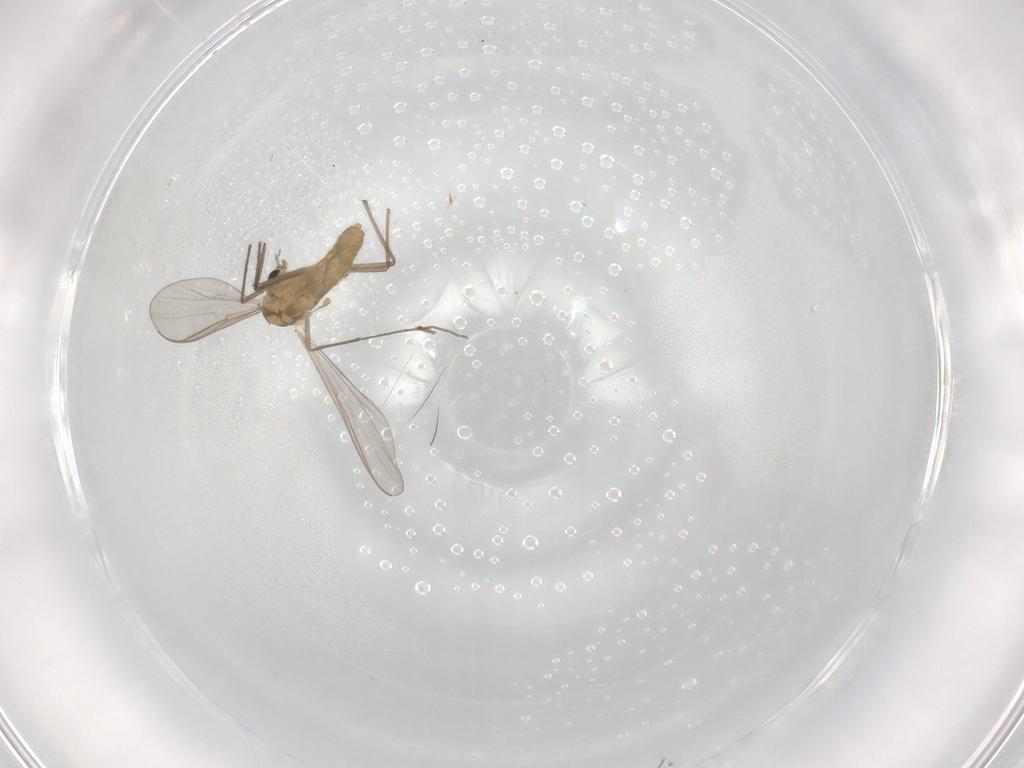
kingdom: Animalia
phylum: Arthropoda
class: Insecta
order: Diptera
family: Chironomidae
